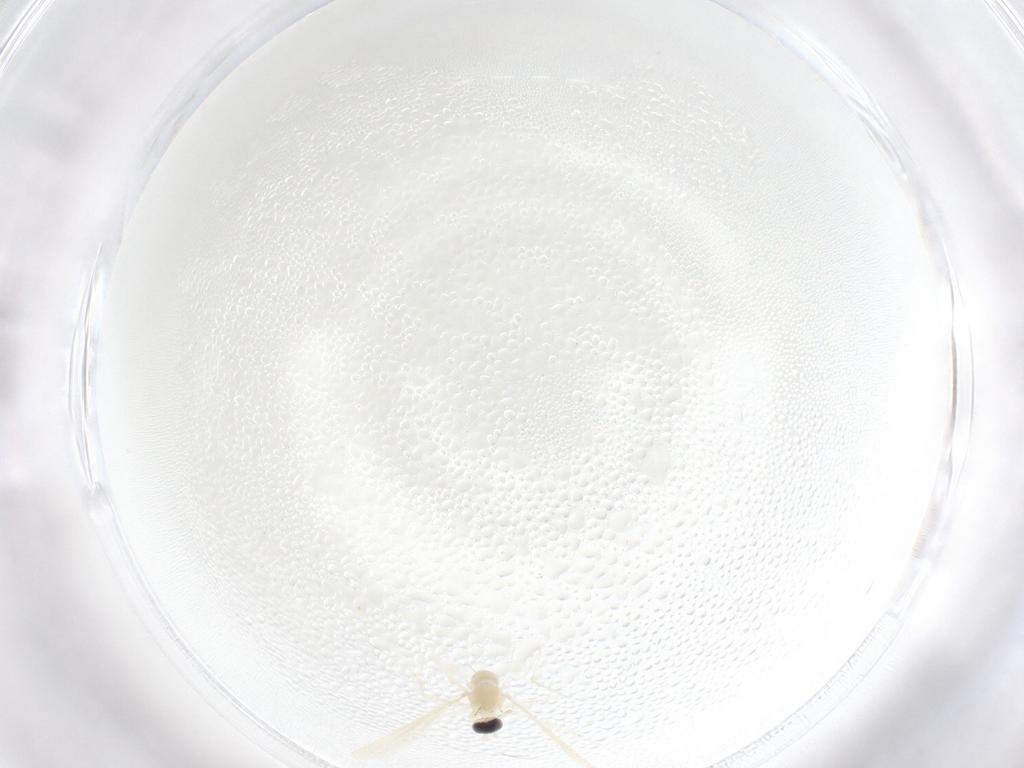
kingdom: Animalia
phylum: Arthropoda
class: Insecta
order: Diptera
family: Cecidomyiidae
